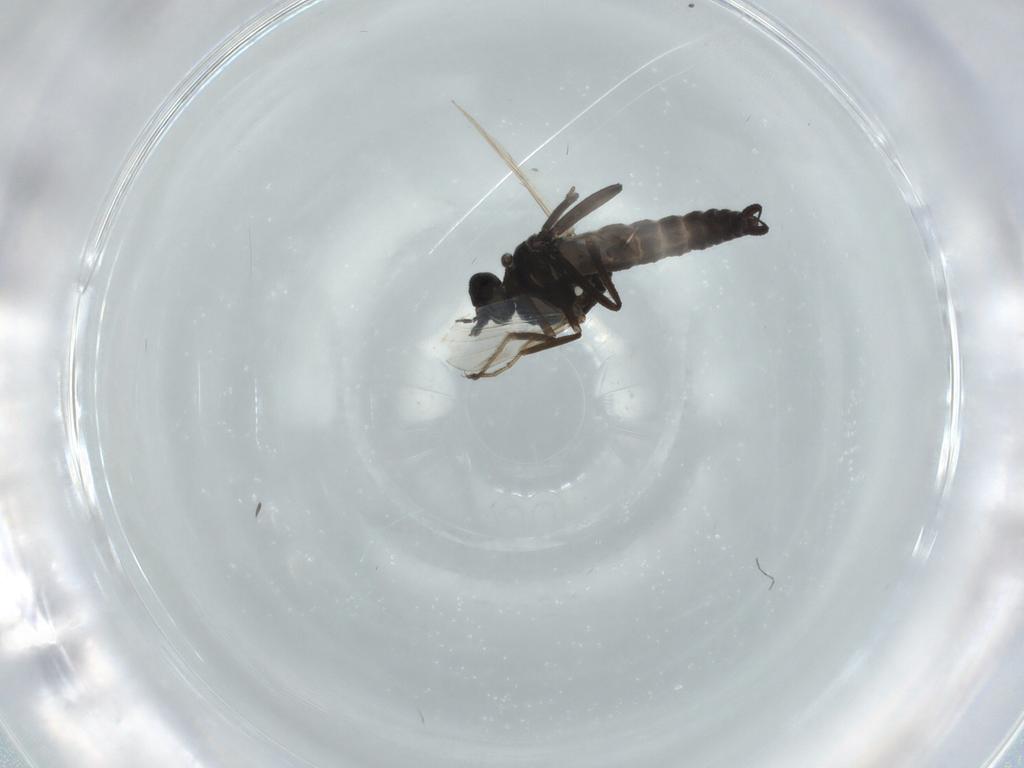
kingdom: Animalia
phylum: Arthropoda
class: Insecta
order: Diptera
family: Ceratopogonidae
